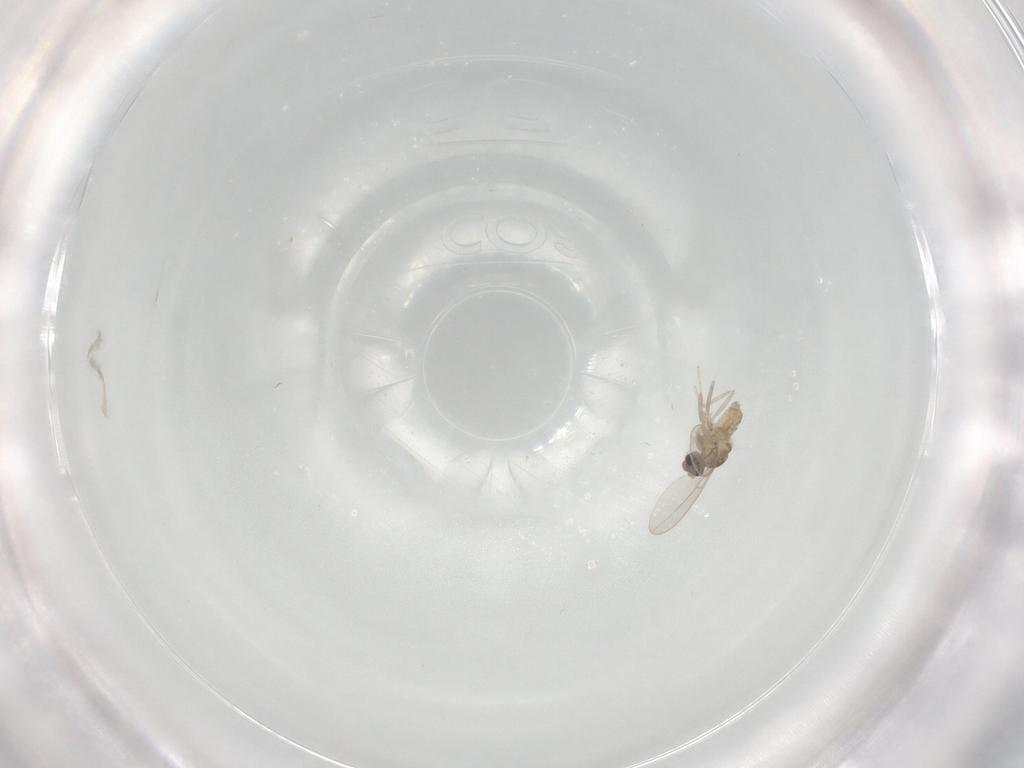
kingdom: Animalia
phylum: Arthropoda
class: Insecta
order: Diptera
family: Cecidomyiidae
